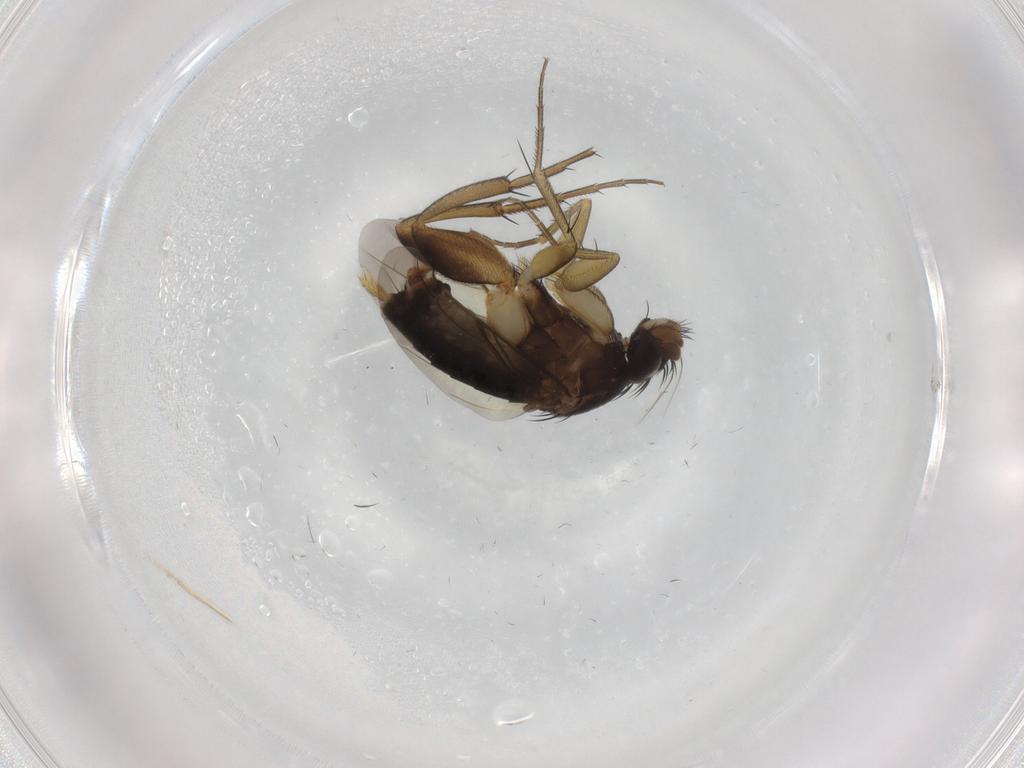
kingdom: Animalia
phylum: Arthropoda
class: Insecta
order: Diptera
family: Phoridae
